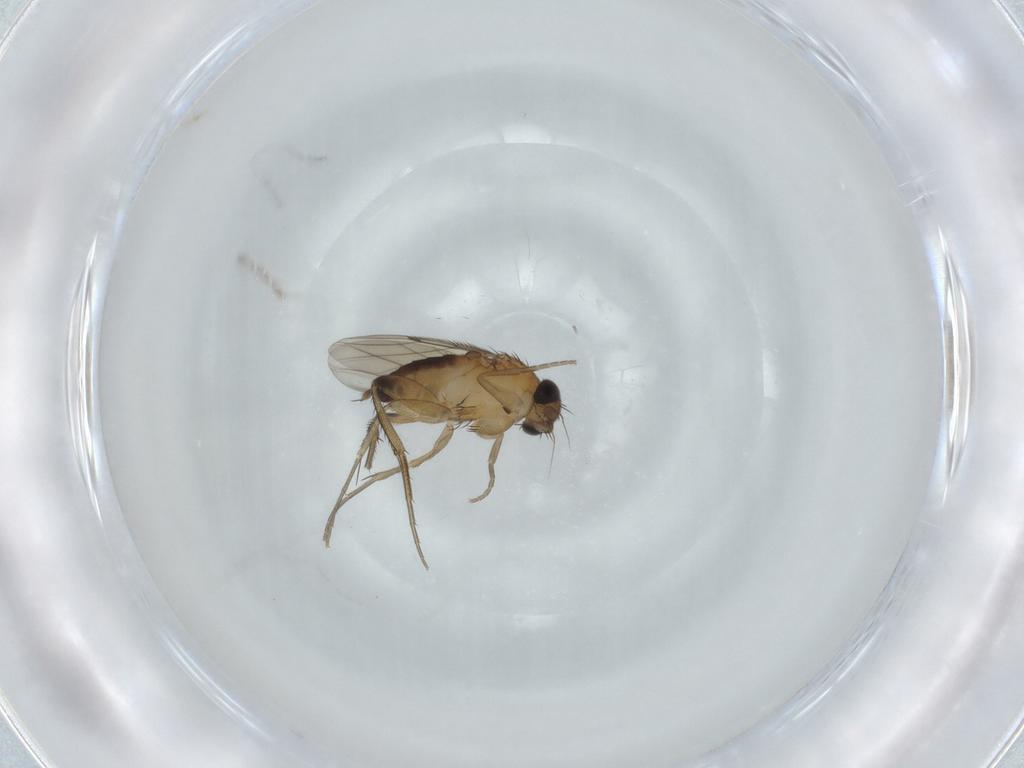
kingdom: Animalia
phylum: Arthropoda
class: Insecta
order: Diptera
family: Phoridae
